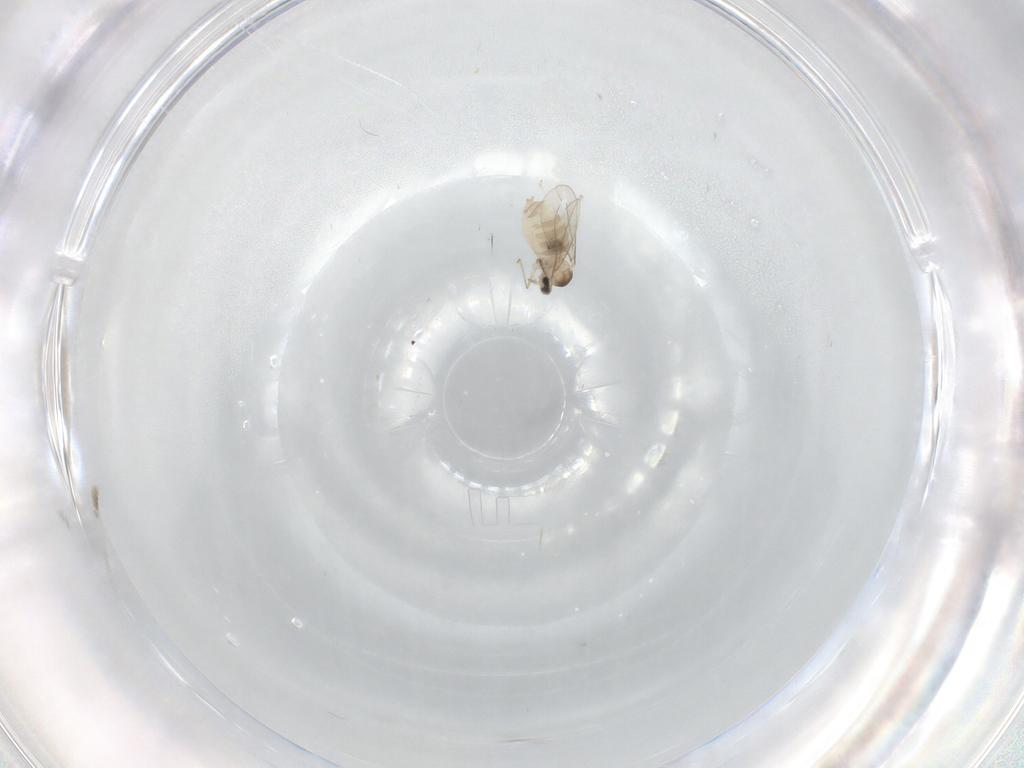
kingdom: Animalia
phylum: Arthropoda
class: Insecta
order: Diptera
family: Cecidomyiidae
